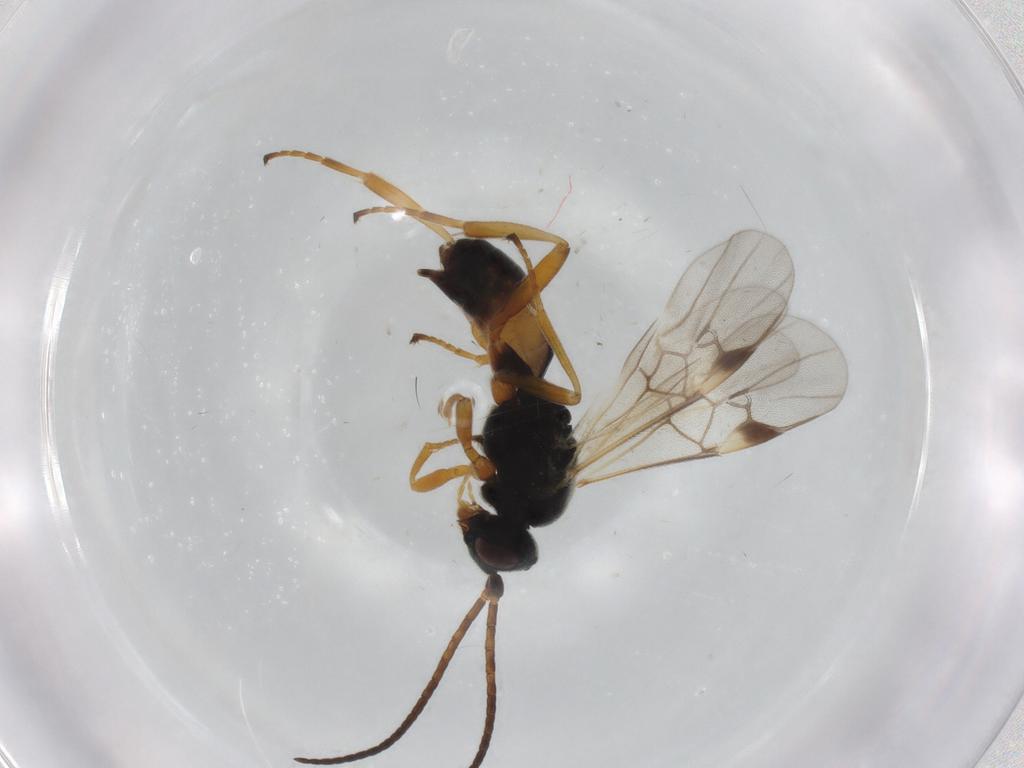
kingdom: Animalia
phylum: Arthropoda
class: Insecta
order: Hymenoptera
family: Braconidae
